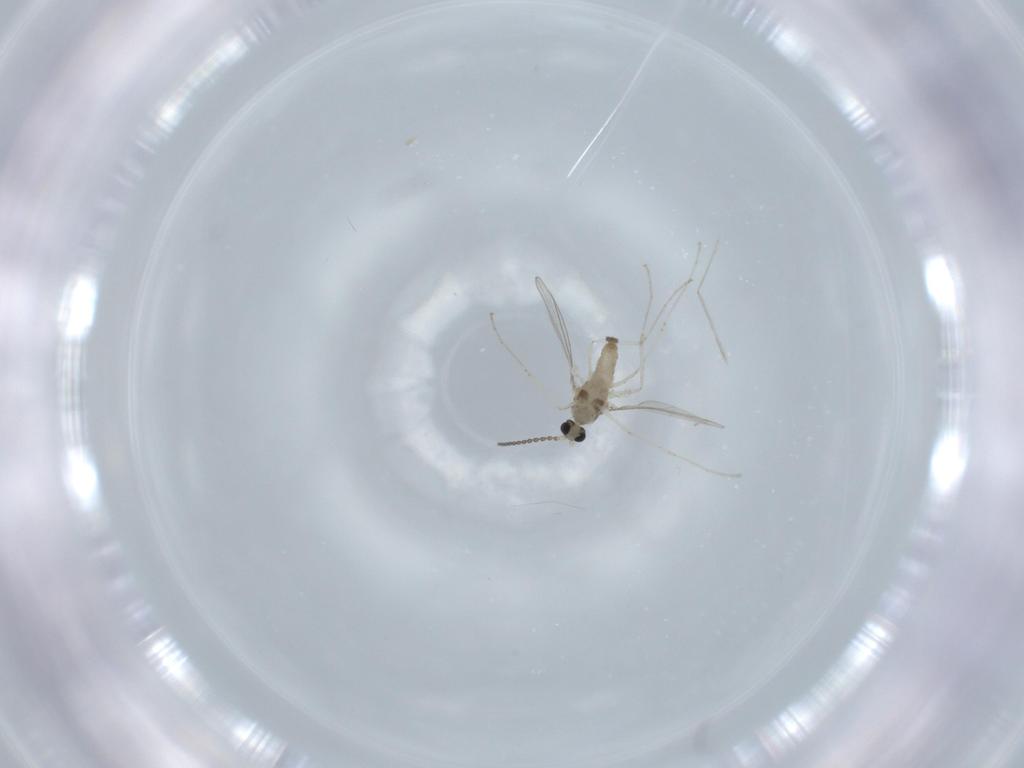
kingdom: Animalia
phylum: Arthropoda
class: Insecta
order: Diptera
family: Cecidomyiidae
